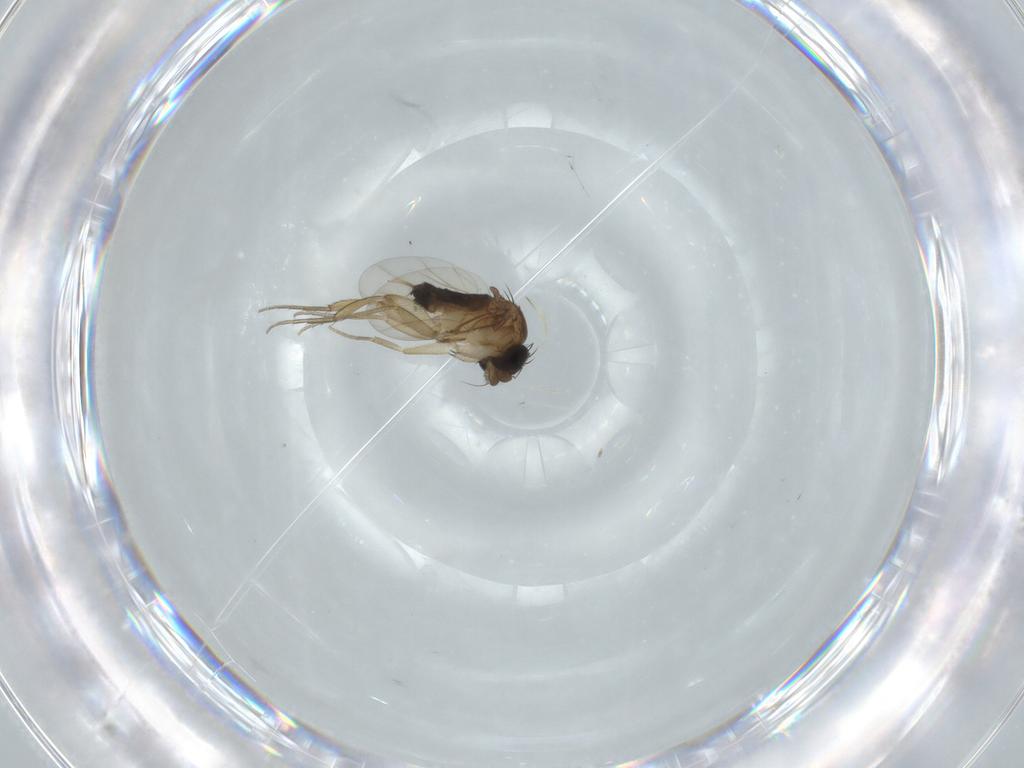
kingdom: Animalia
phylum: Arthropoda
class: Insecta
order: Diptera
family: Phoridae
